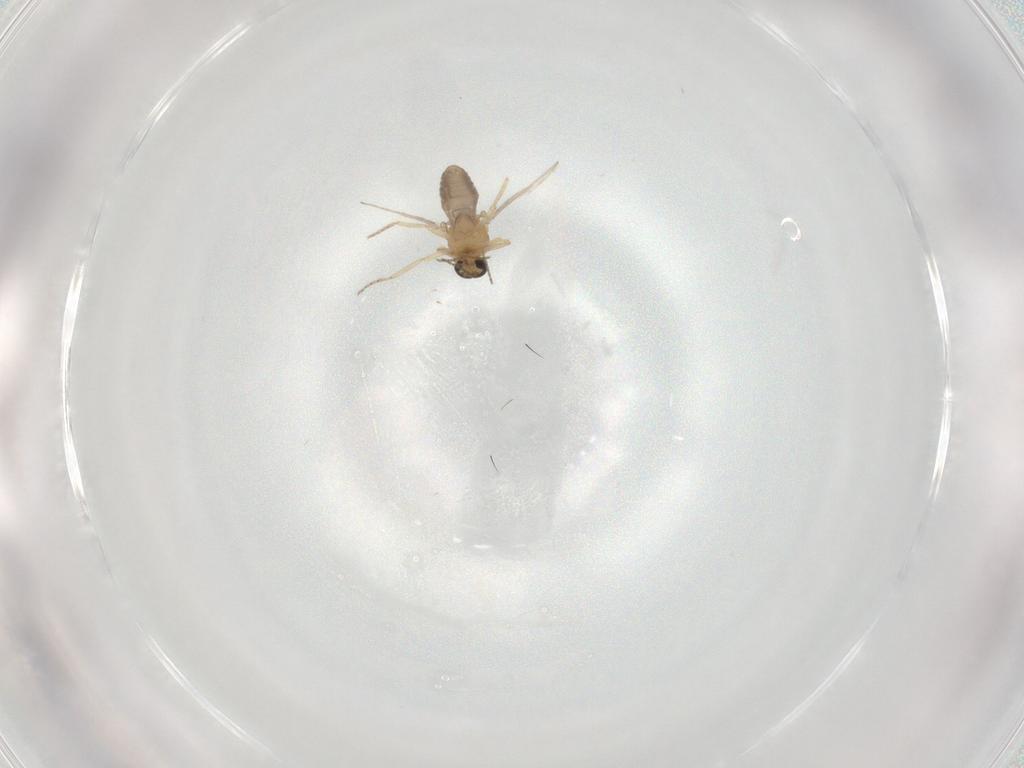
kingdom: Animalia
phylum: Arthropoda
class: Insecta
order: Diptera
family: Ceratopogonidae
